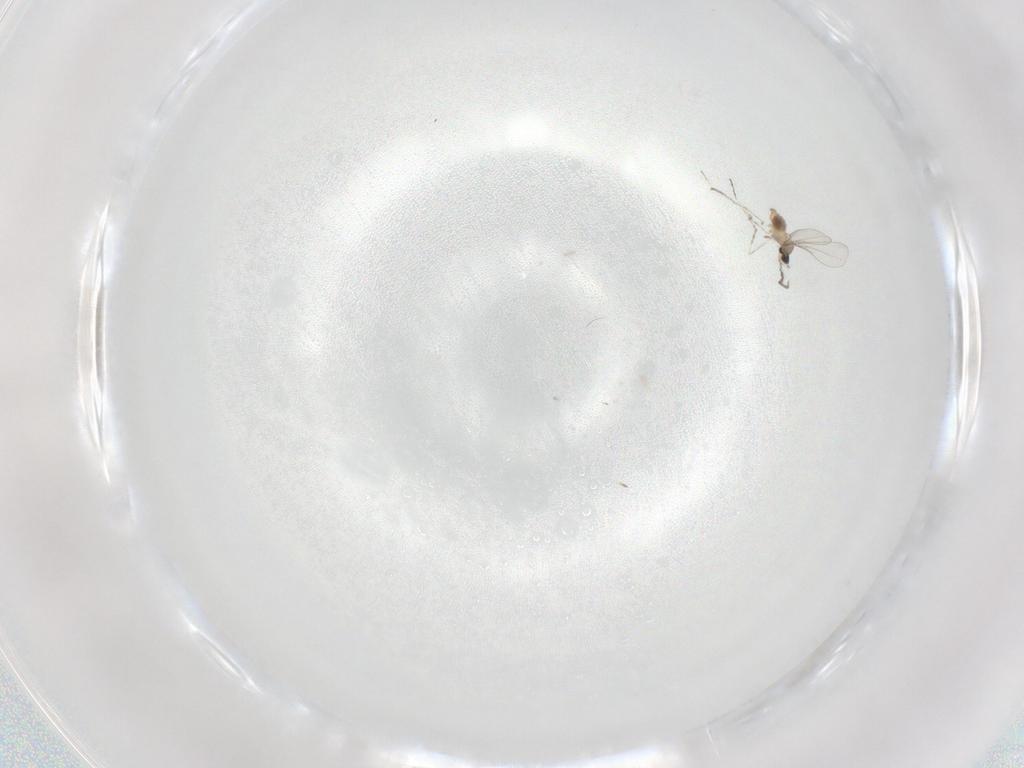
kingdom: Animalia
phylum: Arthropoda
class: Insecta
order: Diptera
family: Cecidomyiidae
